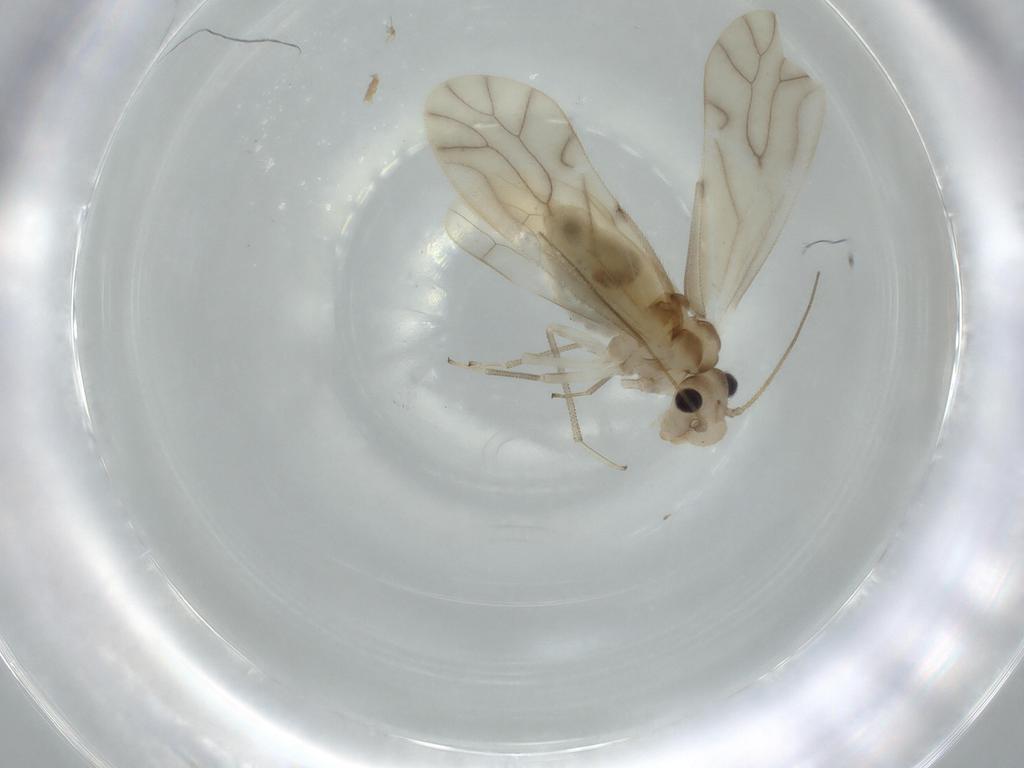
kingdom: Animalia
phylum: Arthropoda
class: Insecta
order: Psocodea
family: Caeciliusidae
